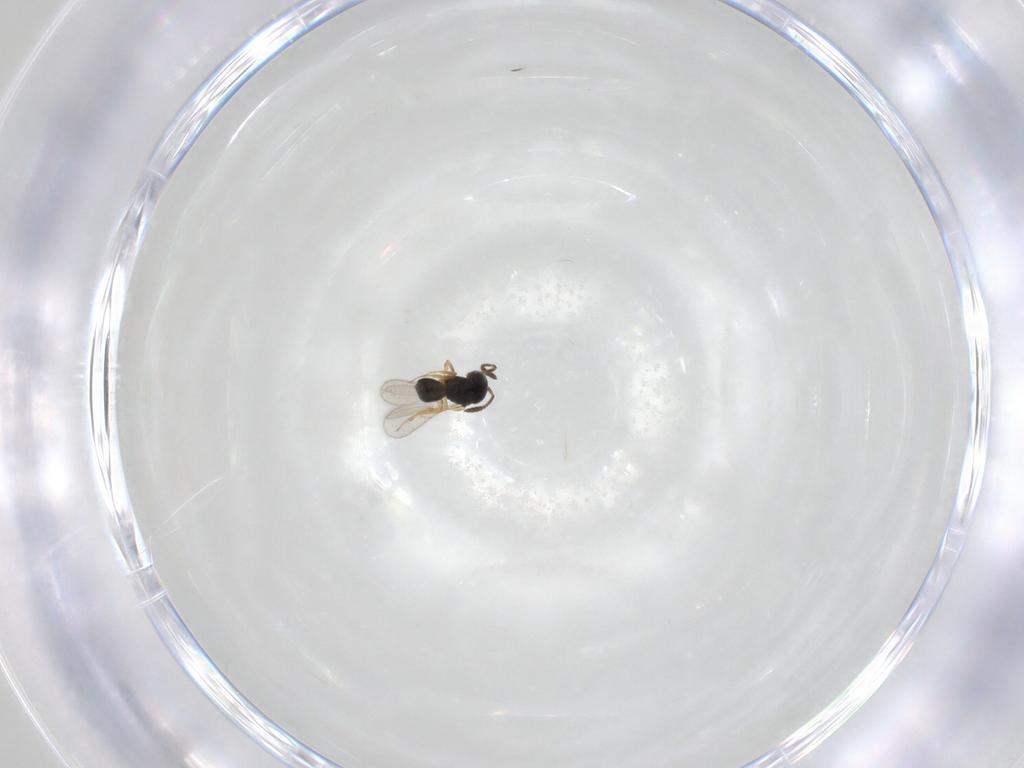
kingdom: Animalia
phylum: Arthropoda
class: Insecta
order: Hymenoptera
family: Scelionidae
